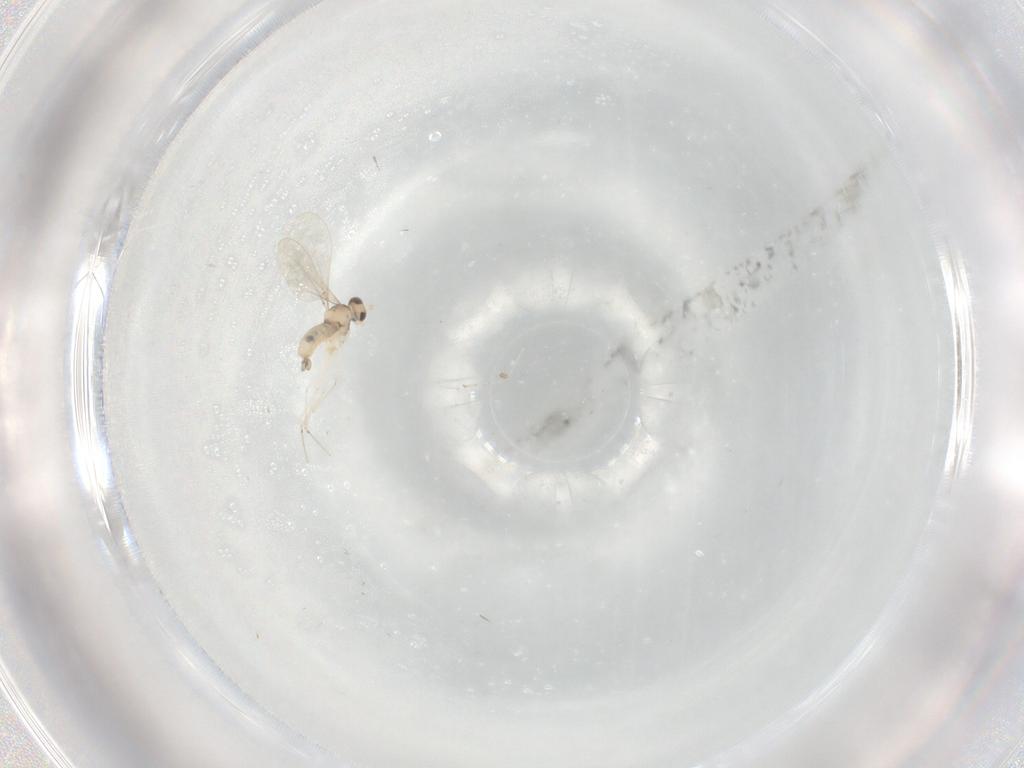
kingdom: Animalia
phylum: Arthropoda
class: Insecta
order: Diptera
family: Cecidomyiidae
